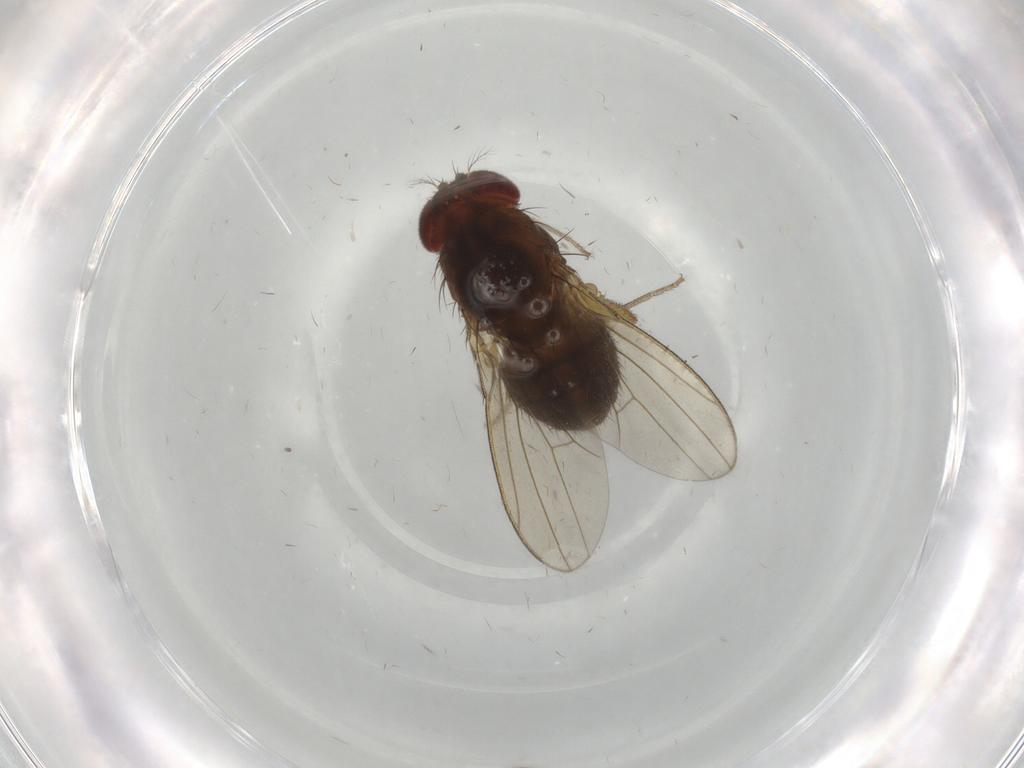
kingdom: Animalia
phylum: Arthropoda
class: Insecta
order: Diptera
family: Drosophilidae
